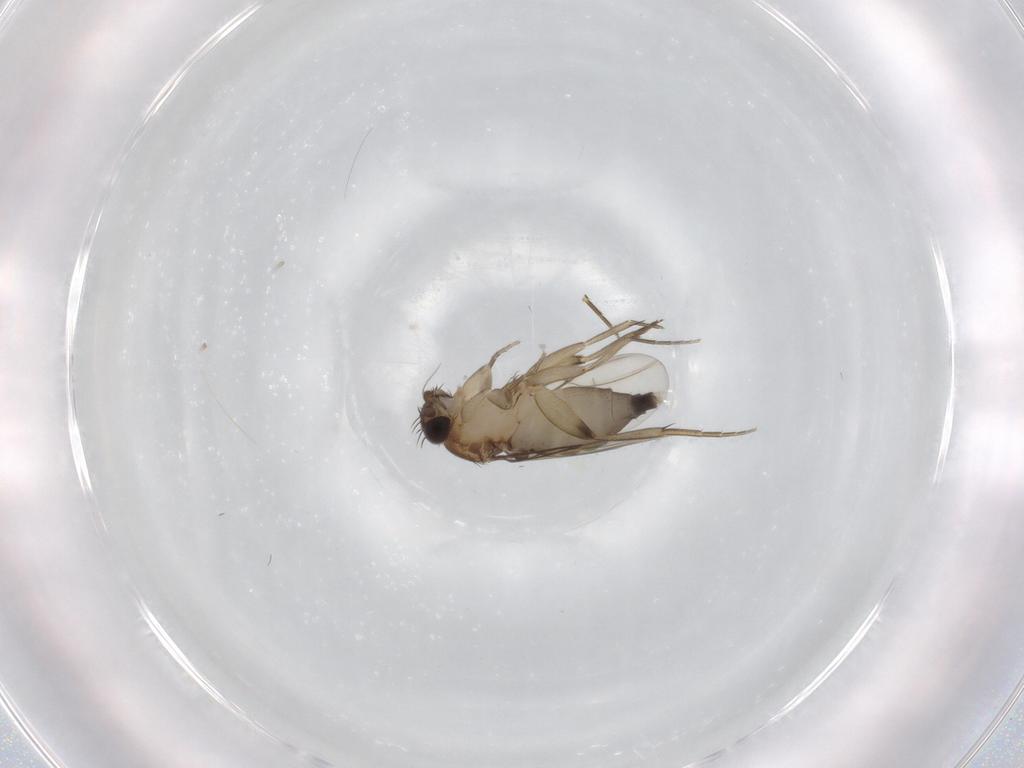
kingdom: Animalia
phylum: Arthropoda
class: Insecta
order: Diptera
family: Phoridae
